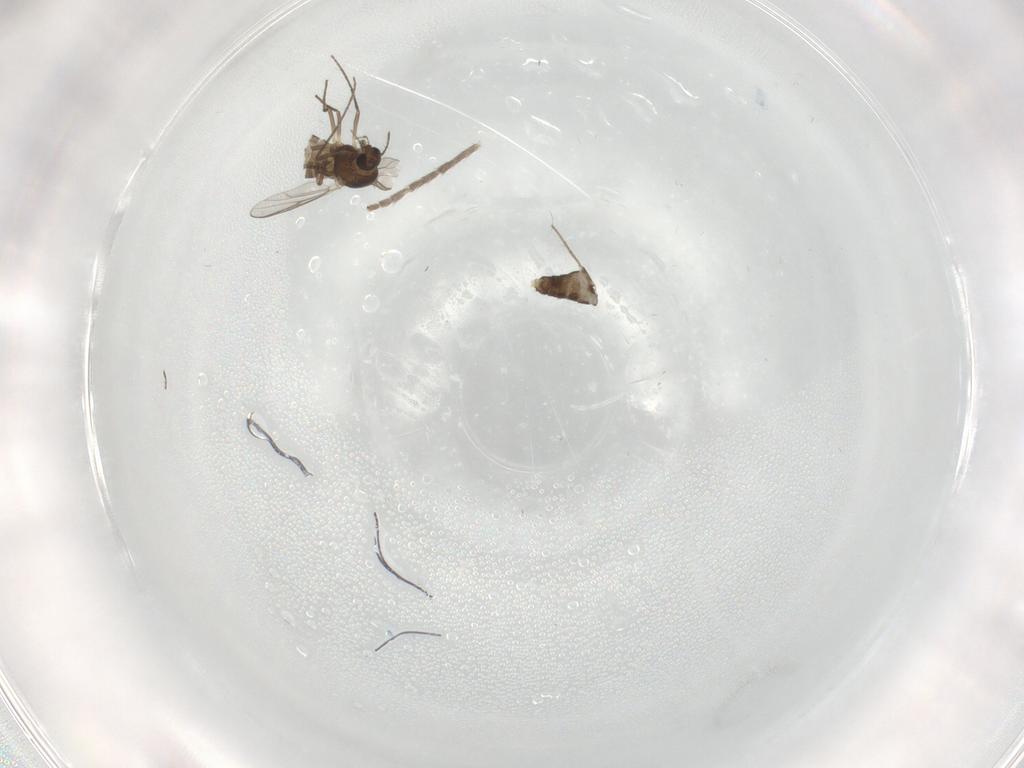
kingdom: Animalia
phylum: Arthropoda
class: Insecta
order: Diptera
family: Chironomidae
